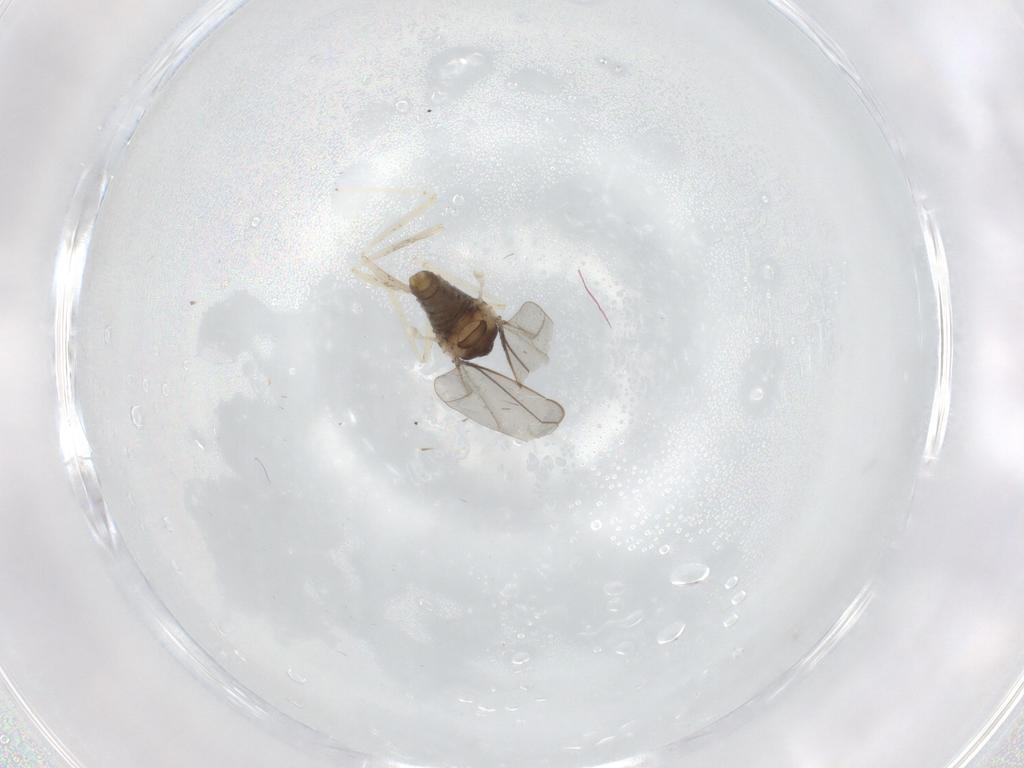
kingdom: Animalia
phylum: Arthropoda
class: Insecta
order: Diptera
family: Cecidomyiidae
